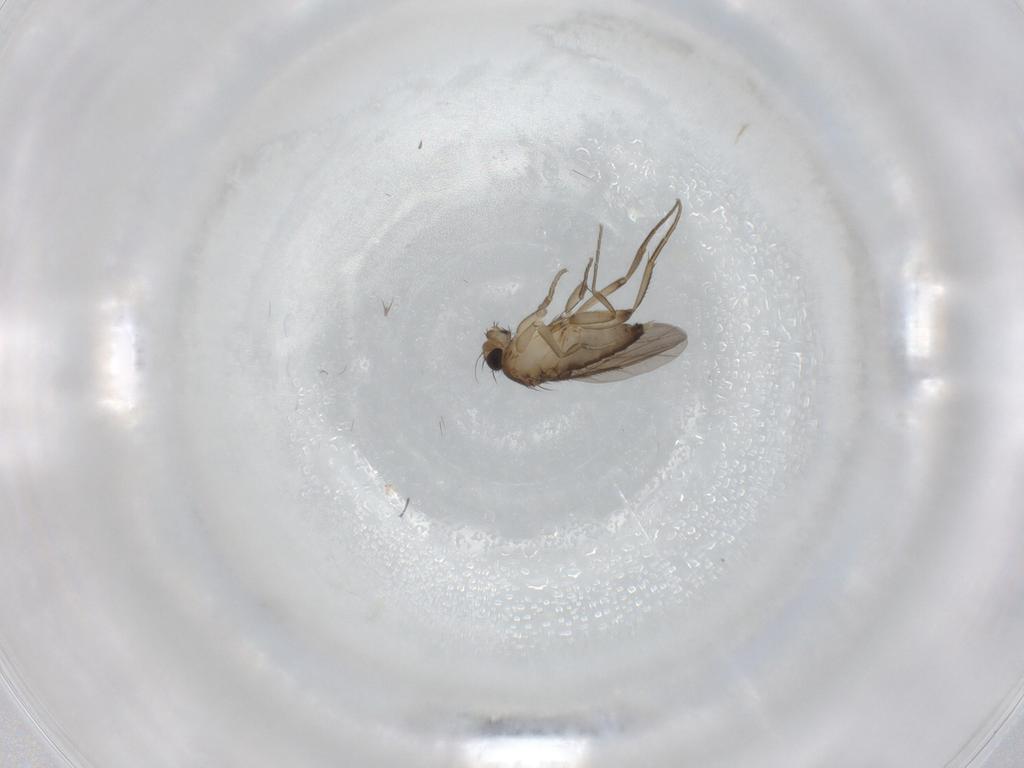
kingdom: Animalia
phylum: Arthropoda
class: Insecta
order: Diptera
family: Phoridae
